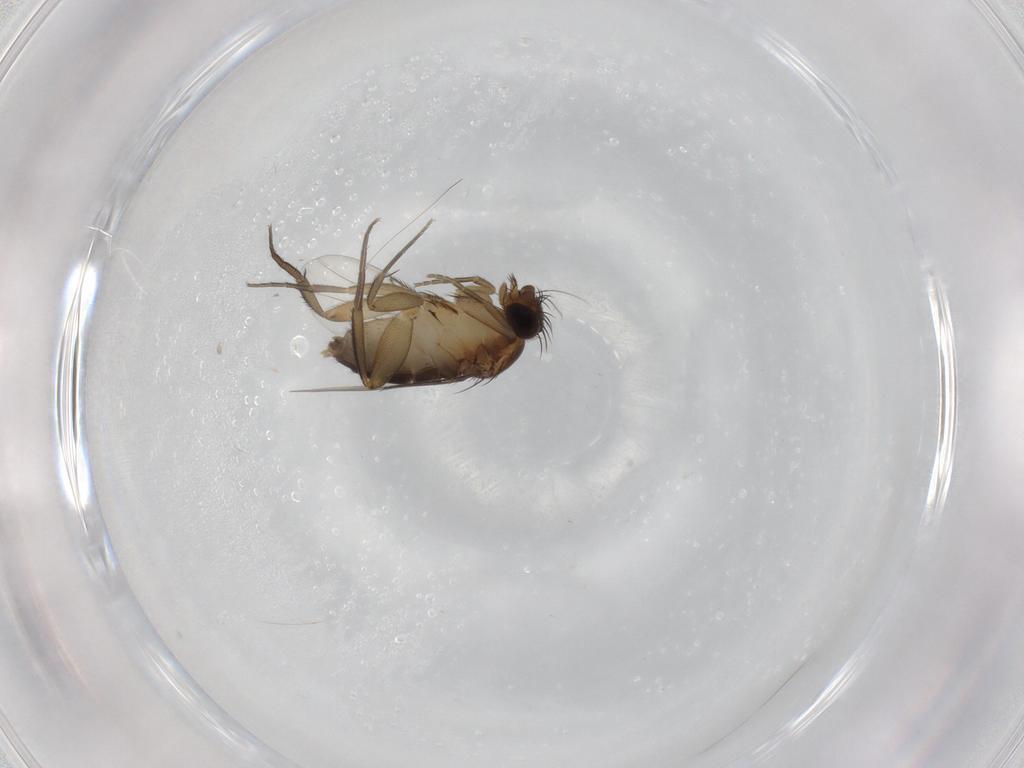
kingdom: Animalia
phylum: Arthropoda
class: Insecta
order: Diptera
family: Phoridae
